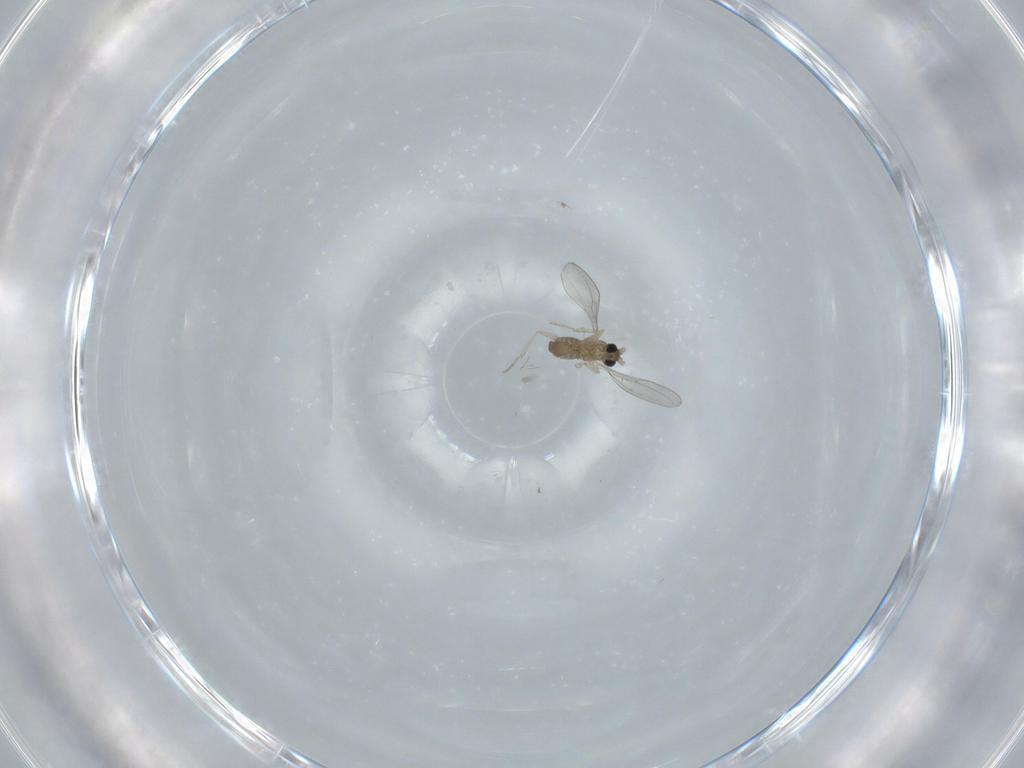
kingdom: Animalia
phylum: Arthropoda
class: Insecta
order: Diptera
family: Cecidomyiidae
